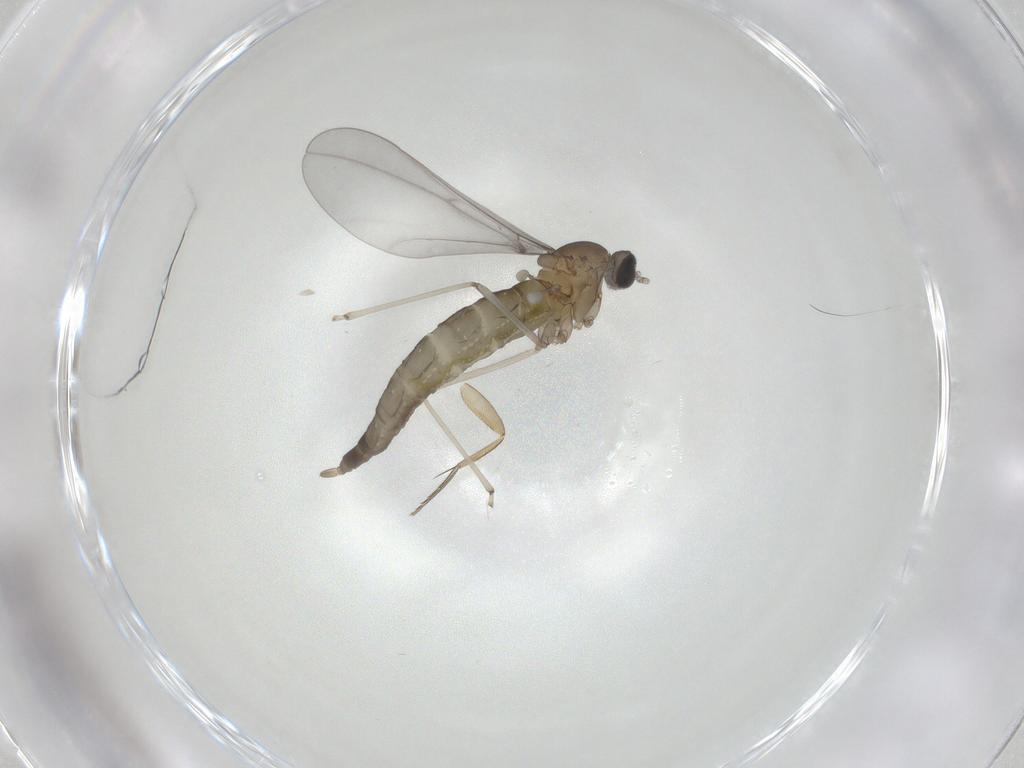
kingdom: Animalia
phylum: Arthropoda
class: Insecta
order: Diptera
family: Cecidomyiidae
